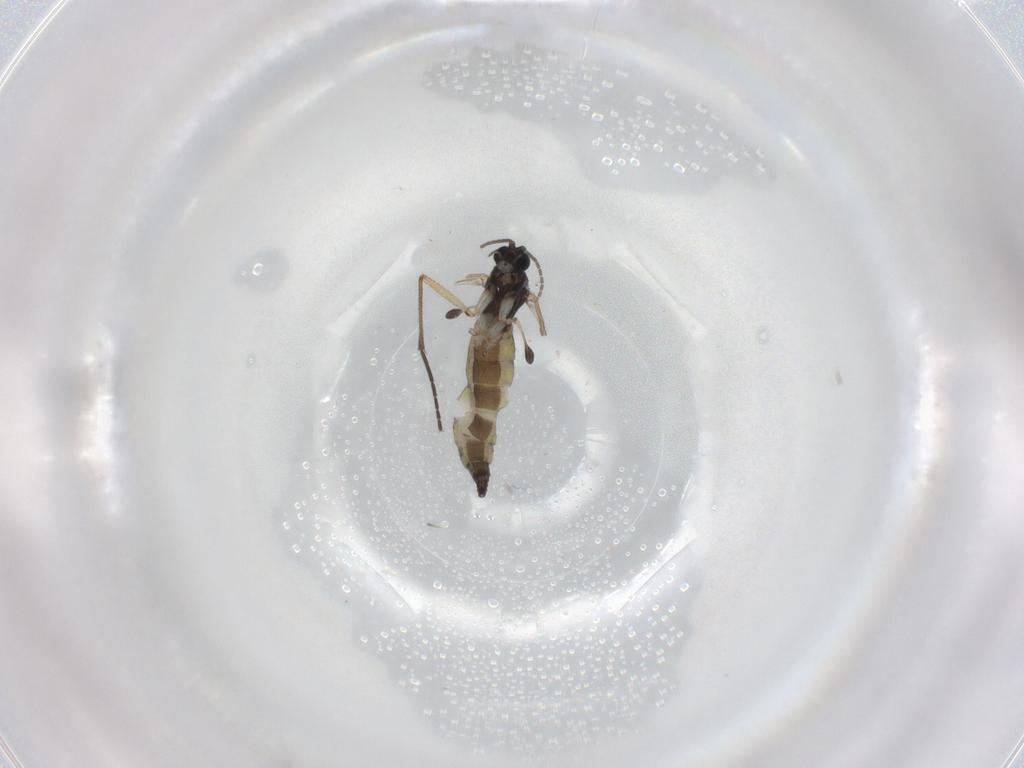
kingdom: Animalia
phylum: Arthropoda
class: Insecta
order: Diptera
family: Sciaridae
